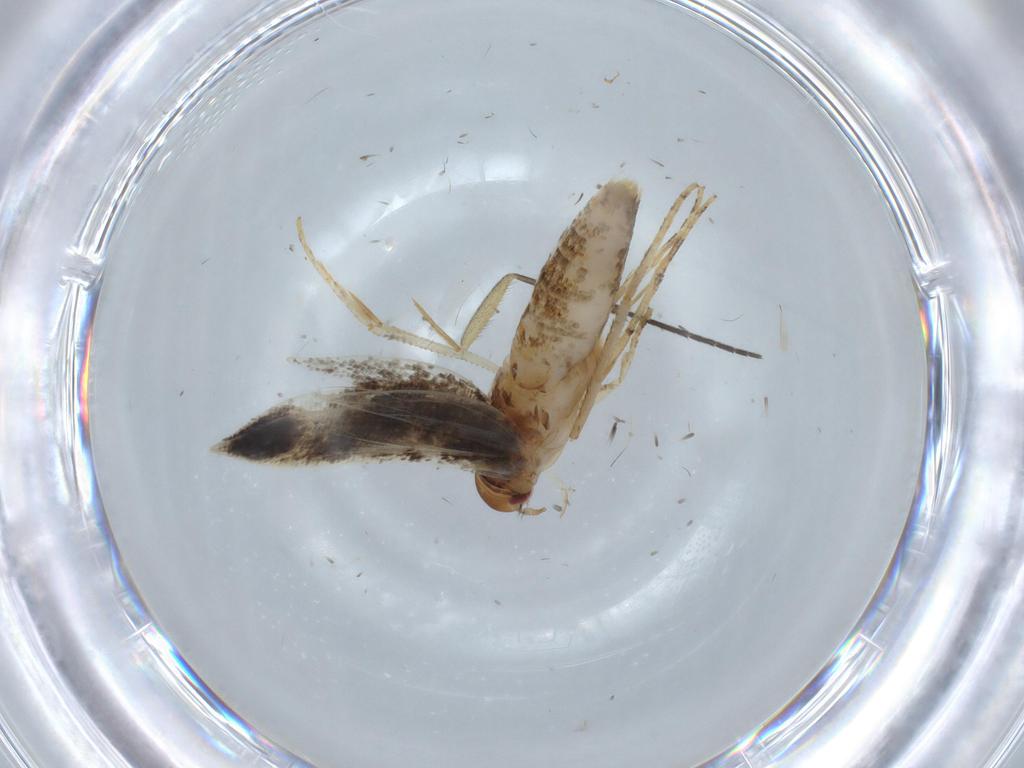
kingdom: Animalia
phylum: Arthropoda
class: Insecta
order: Lepidoptera
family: Momphidae
